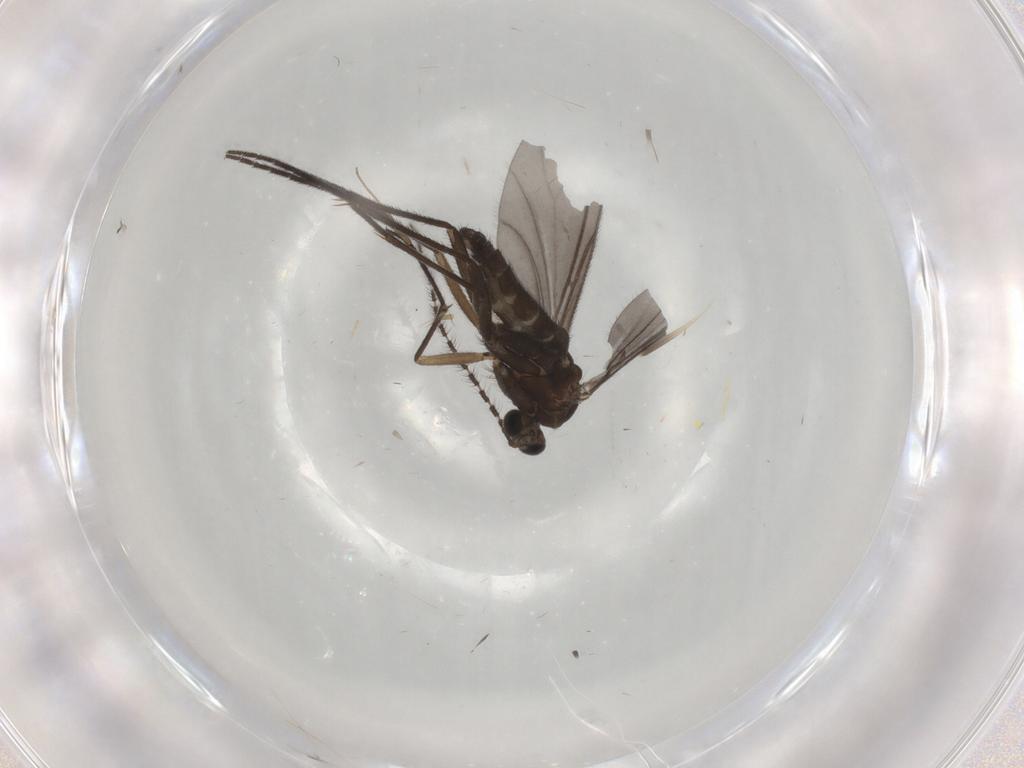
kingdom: Animalia
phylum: Arthropoda
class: Insecta
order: Diptera
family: Sciaridae
